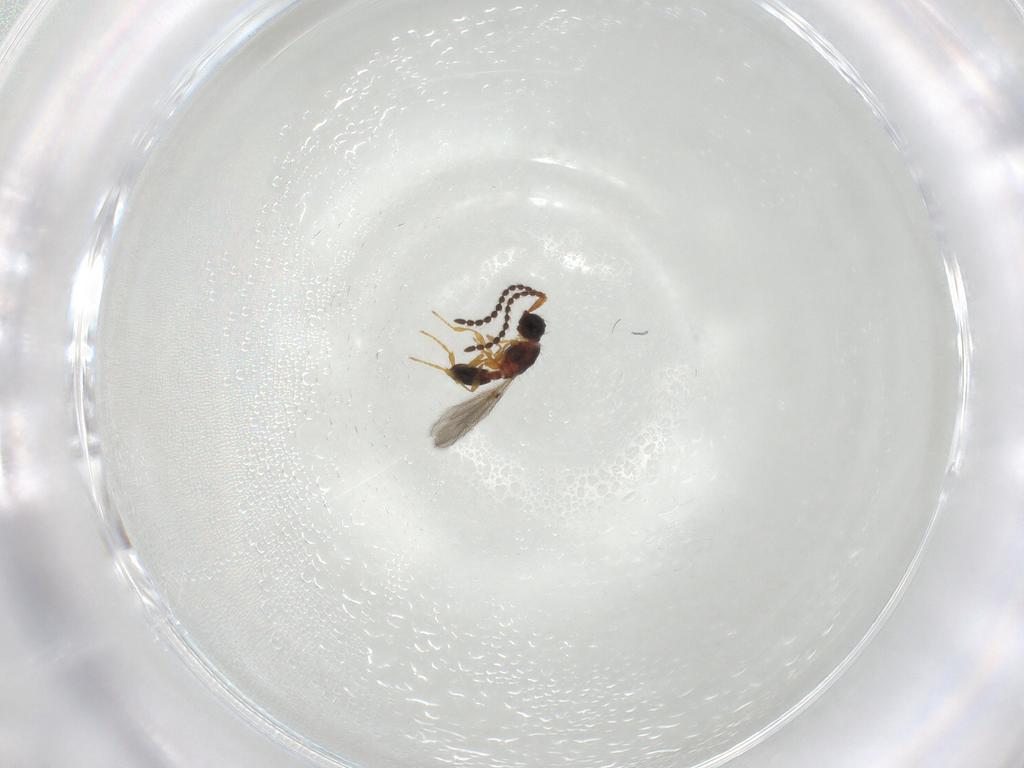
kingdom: Animalia
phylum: Arthropoda
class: Insecta
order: Hymenoptera
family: Diapriidae
